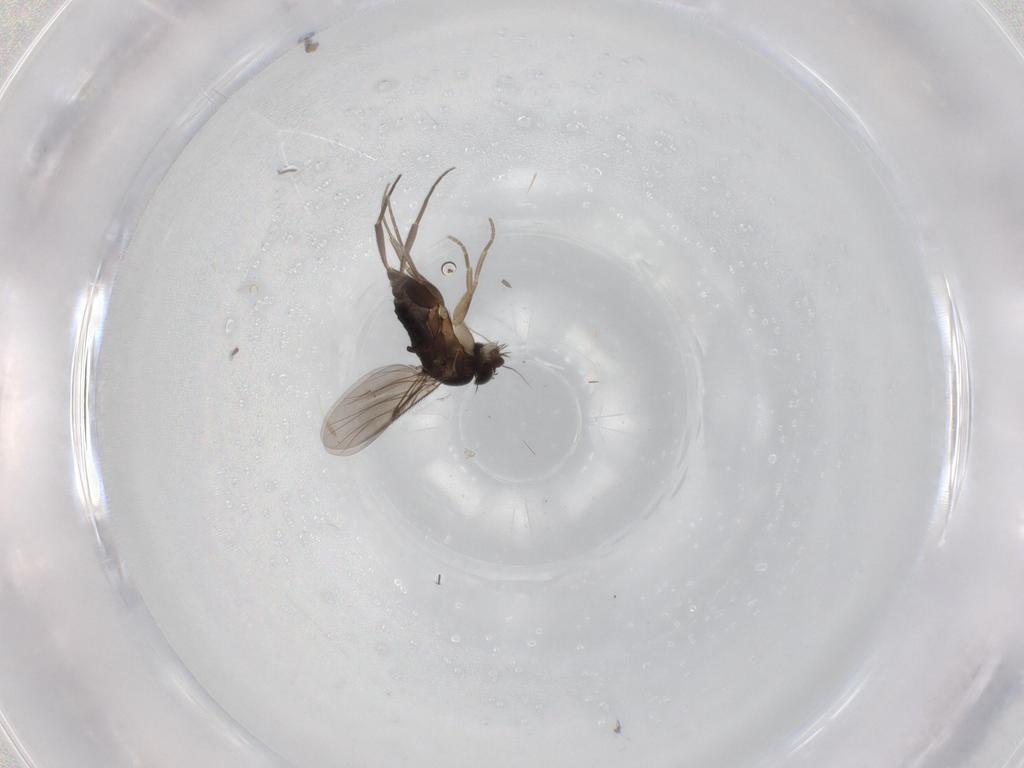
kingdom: Animalia
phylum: Arthropoda
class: Insecta
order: Diptera
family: Phoridae
